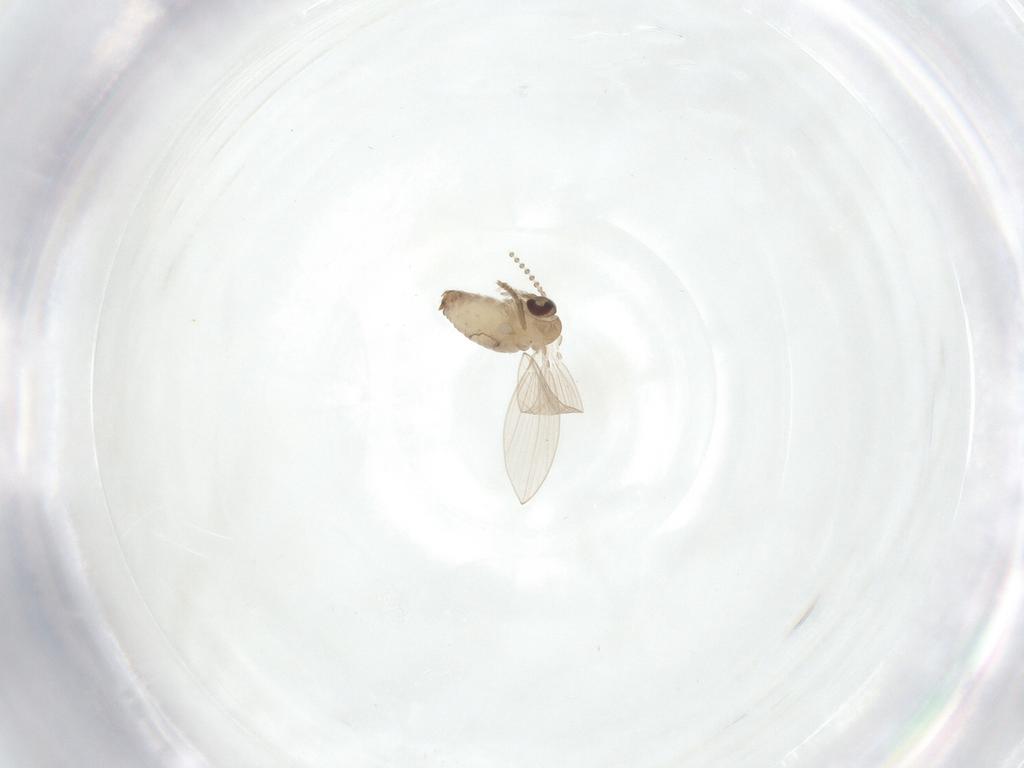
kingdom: Animalia
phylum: Arthropoda
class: Insecta
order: Diptera
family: Psychodidae
